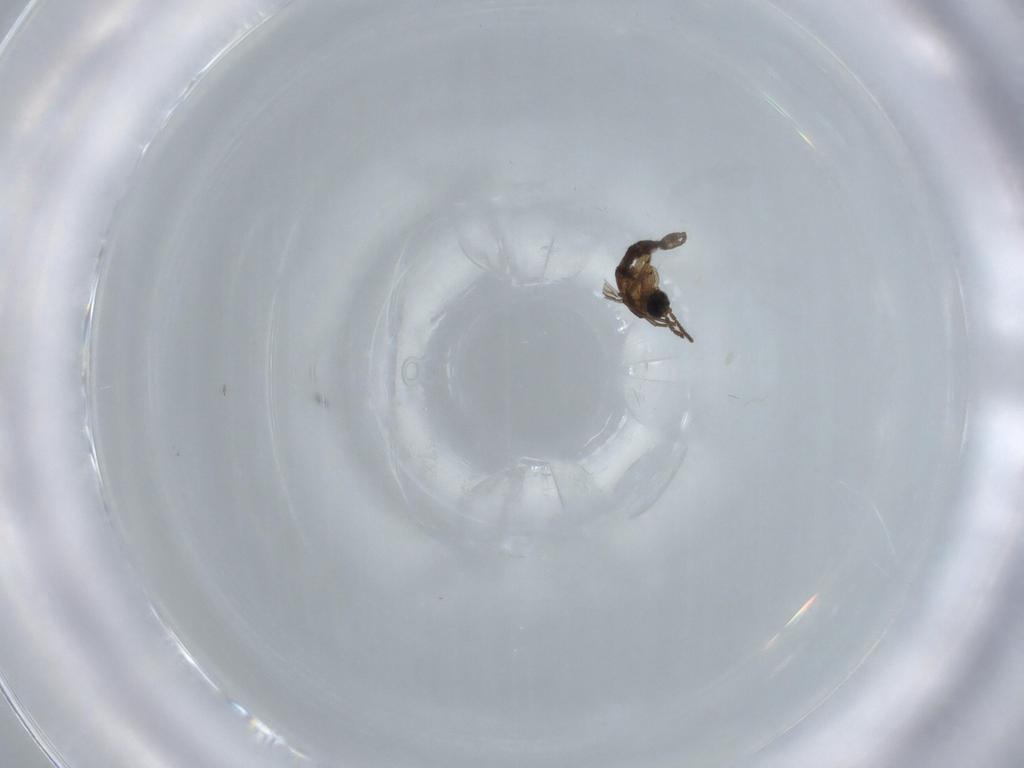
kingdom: Animalia
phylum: Arthropoda
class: Insecta
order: Diptera
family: Sciaridae
